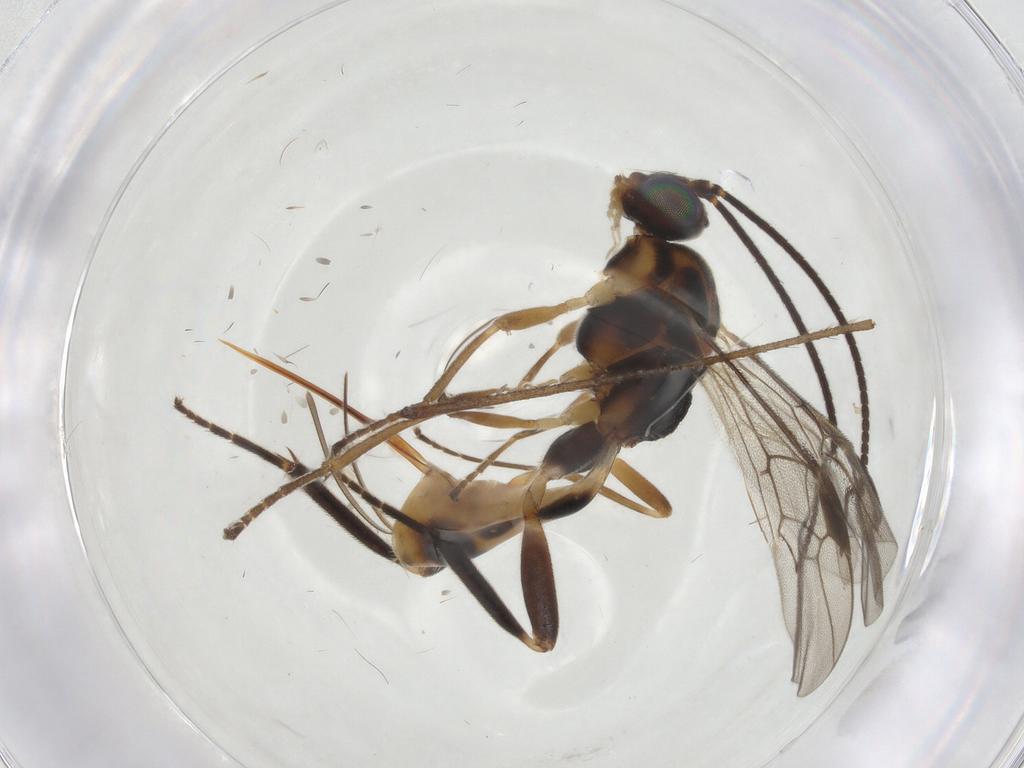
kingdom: Animalia
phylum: Arthropoda
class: Insecta
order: Hymenoptera
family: Braconidae
